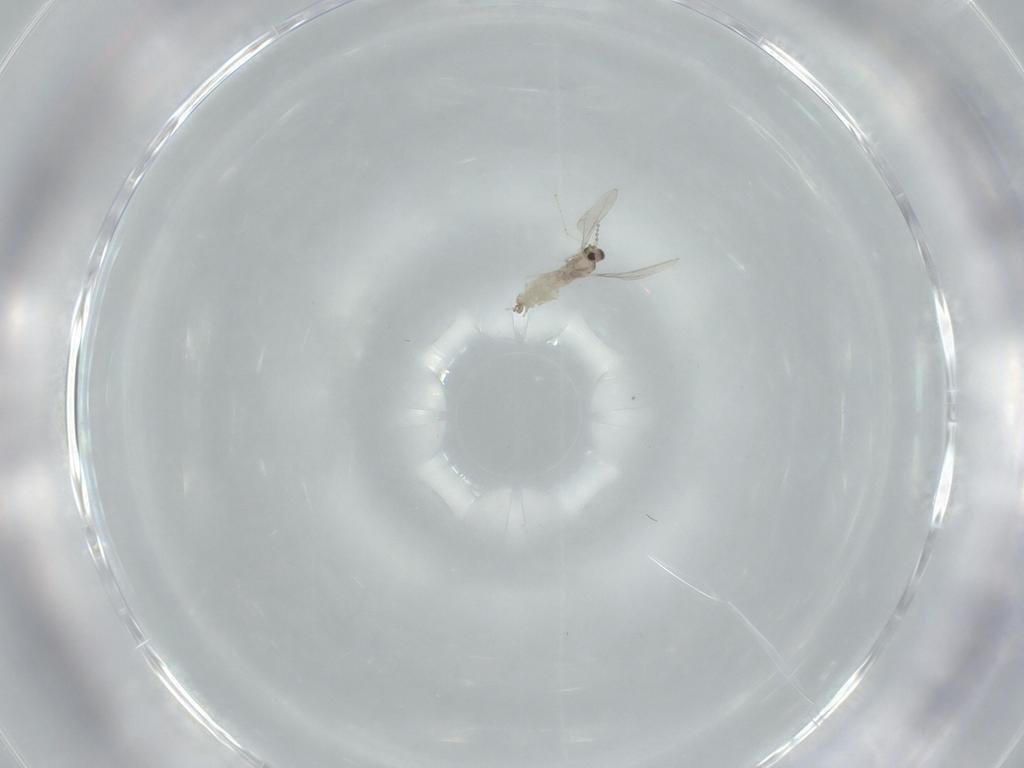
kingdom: Animalia
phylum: Arthropoda
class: Insecta
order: Diptera
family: Cecidomyiidae
